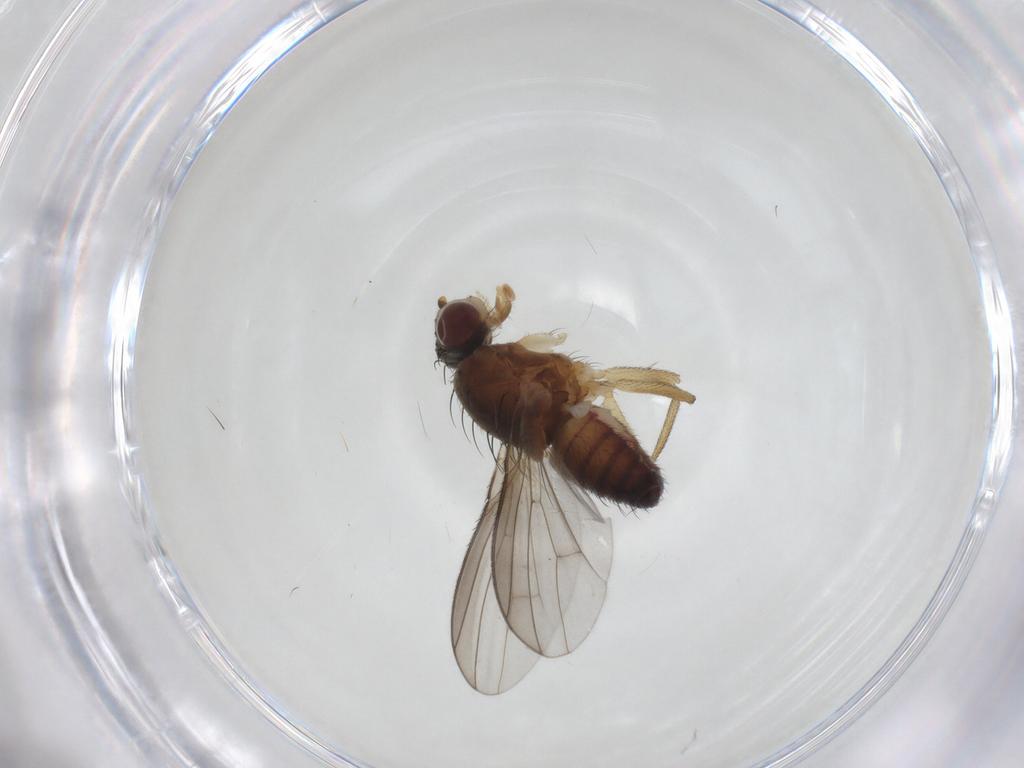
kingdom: Animalia
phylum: Arthropoda
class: Insecta
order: Diptera
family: Heleomyzidae
